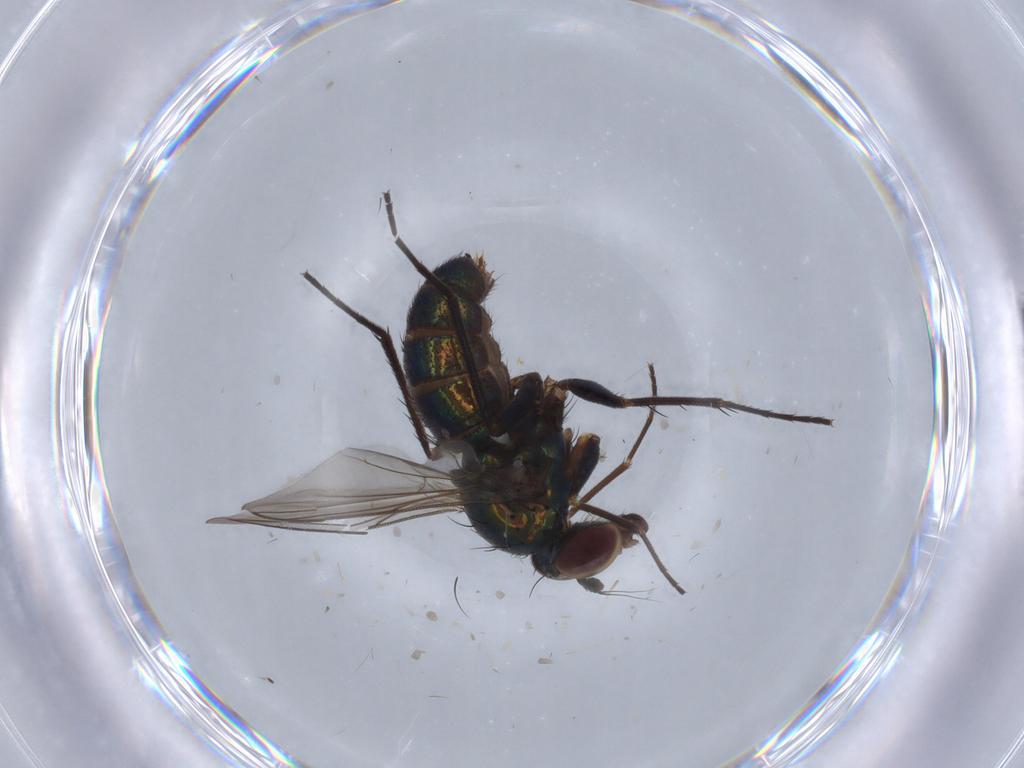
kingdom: Animalia
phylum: Arthropoda
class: Insecta
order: Diptera
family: Dolichopodidae
